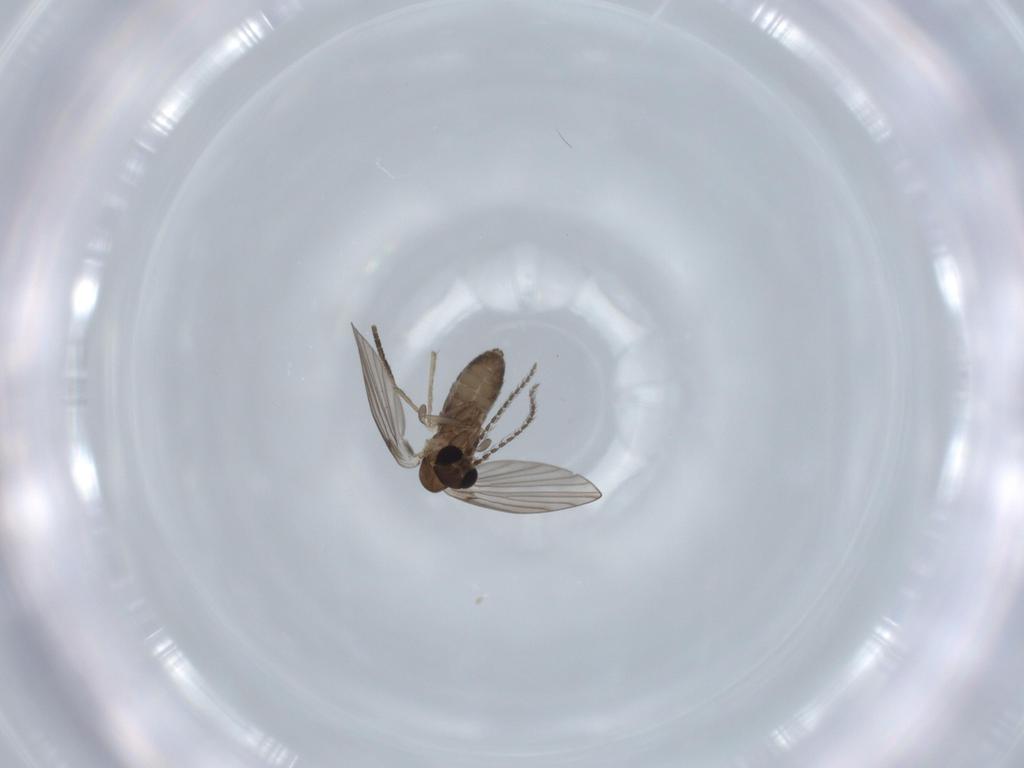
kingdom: Animalia
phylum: Arthropoda
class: Insecta
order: Diptera
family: Psychodidae
